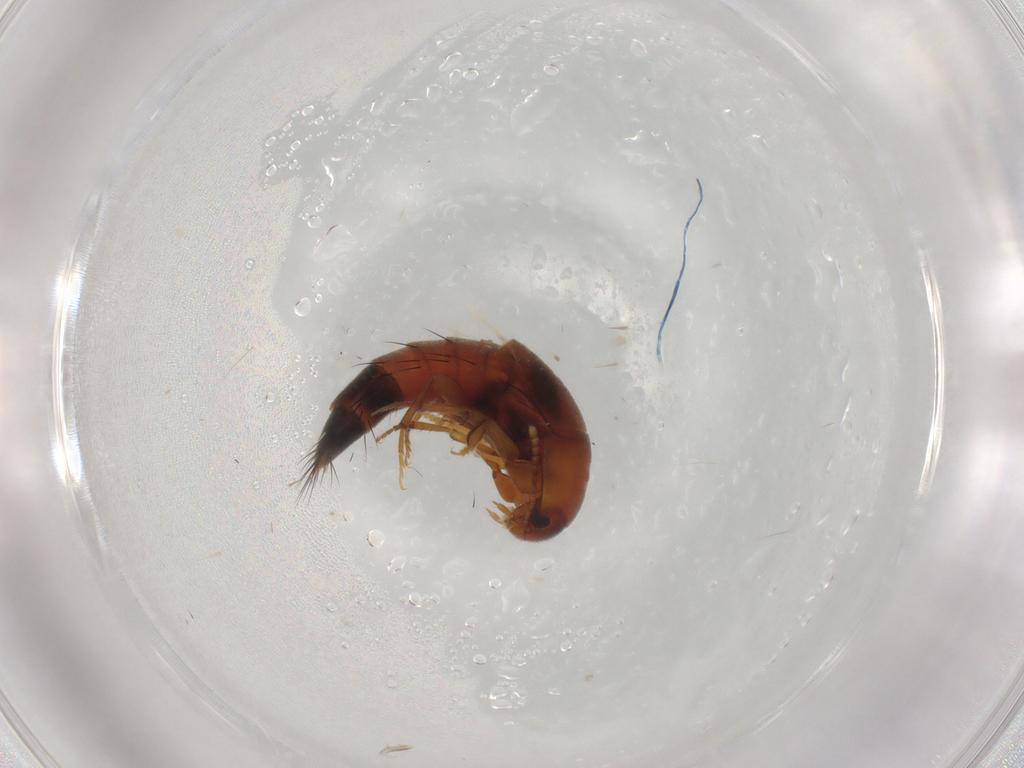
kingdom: Animalia
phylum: Arthropoda
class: Insecta
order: Coleoptera
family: Staphylinidae
